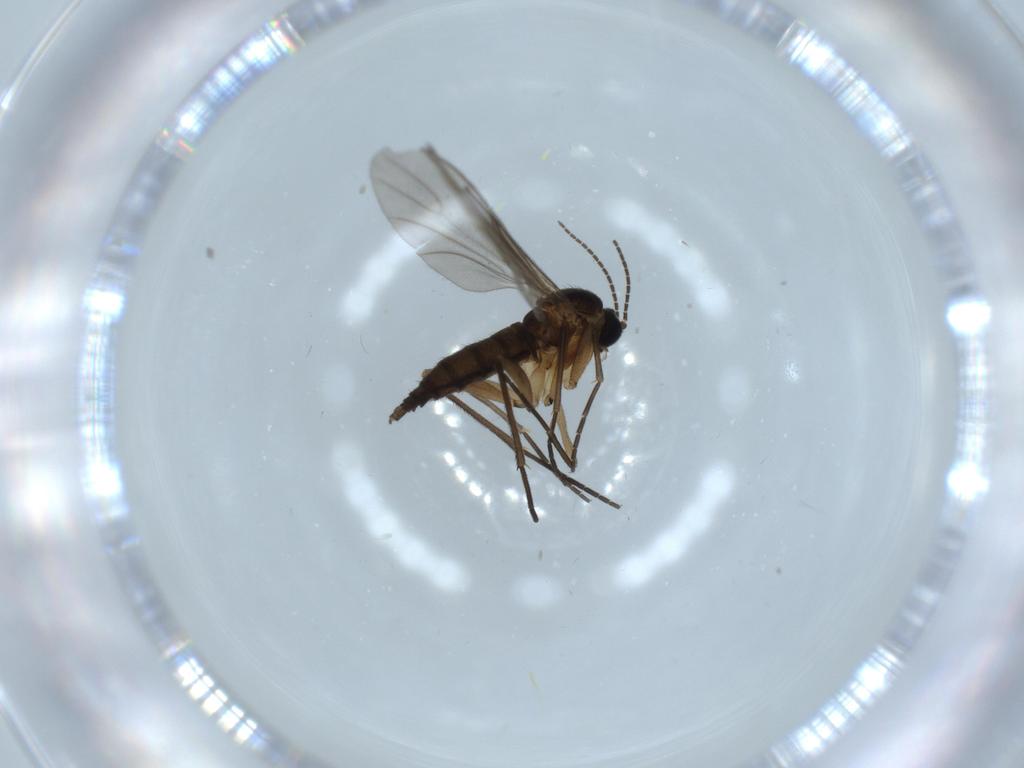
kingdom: Animalia
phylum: Arthropoda
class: Insecta
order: Diptera
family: Sciaridae
